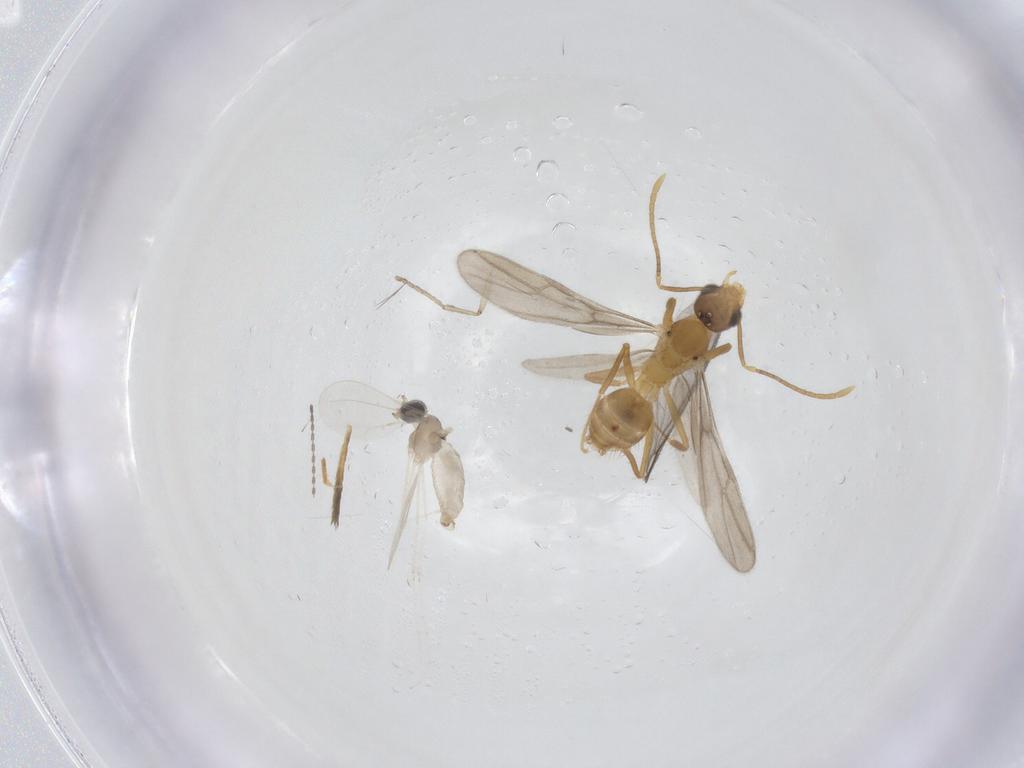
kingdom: Animalia
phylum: Arthropoda
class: Insecta
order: Diptera
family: Cecidomyiidae
